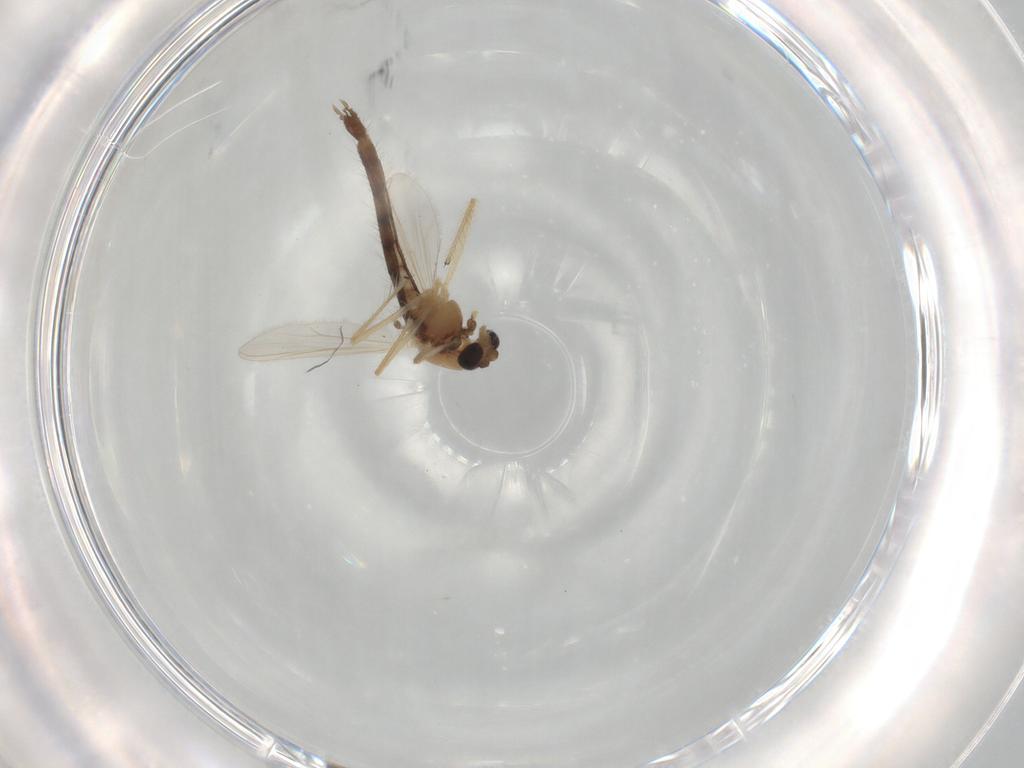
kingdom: Animalia
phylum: Arthropoda
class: Insecta
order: Diptera
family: Chironomidae
